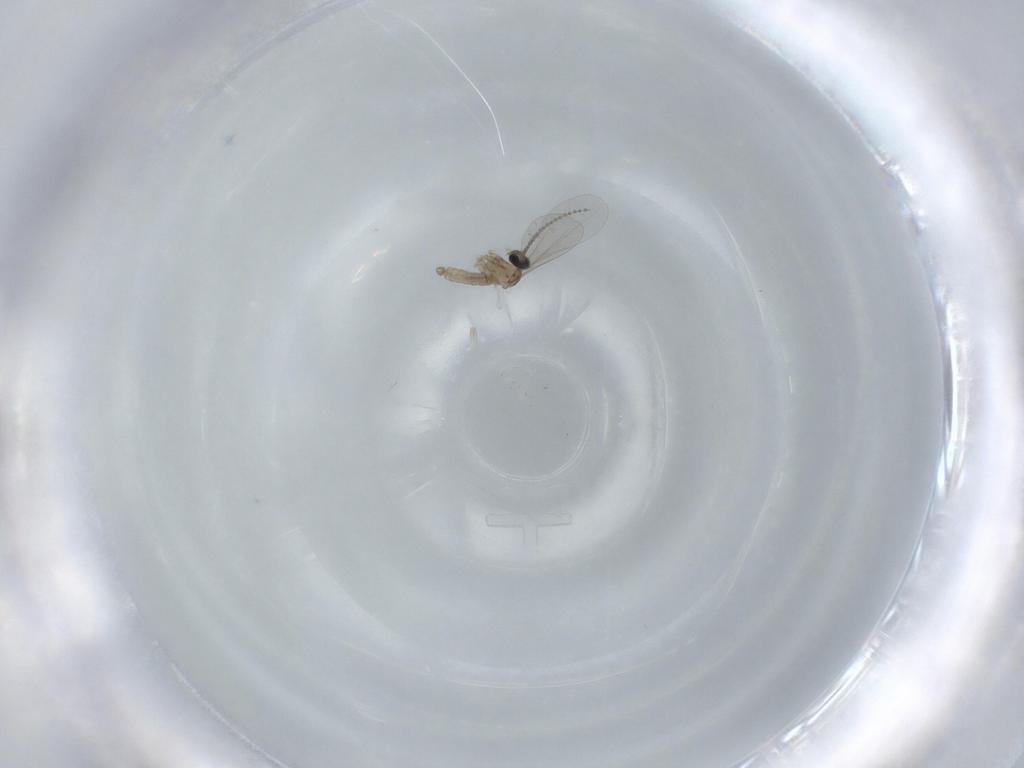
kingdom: Animalia
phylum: Arthropoda
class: Insecta
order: Diptera
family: Cecidomyiidae
